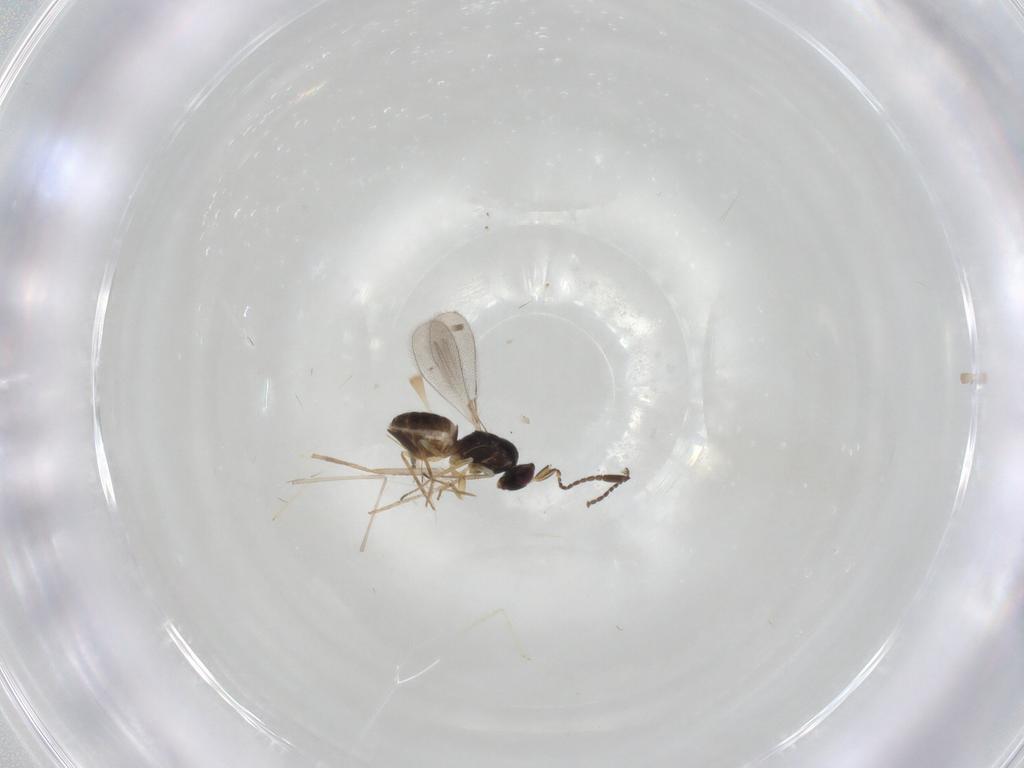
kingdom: Animalia
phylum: Arthropoda
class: Insecta
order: Hymenoptera
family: Mymaridae
